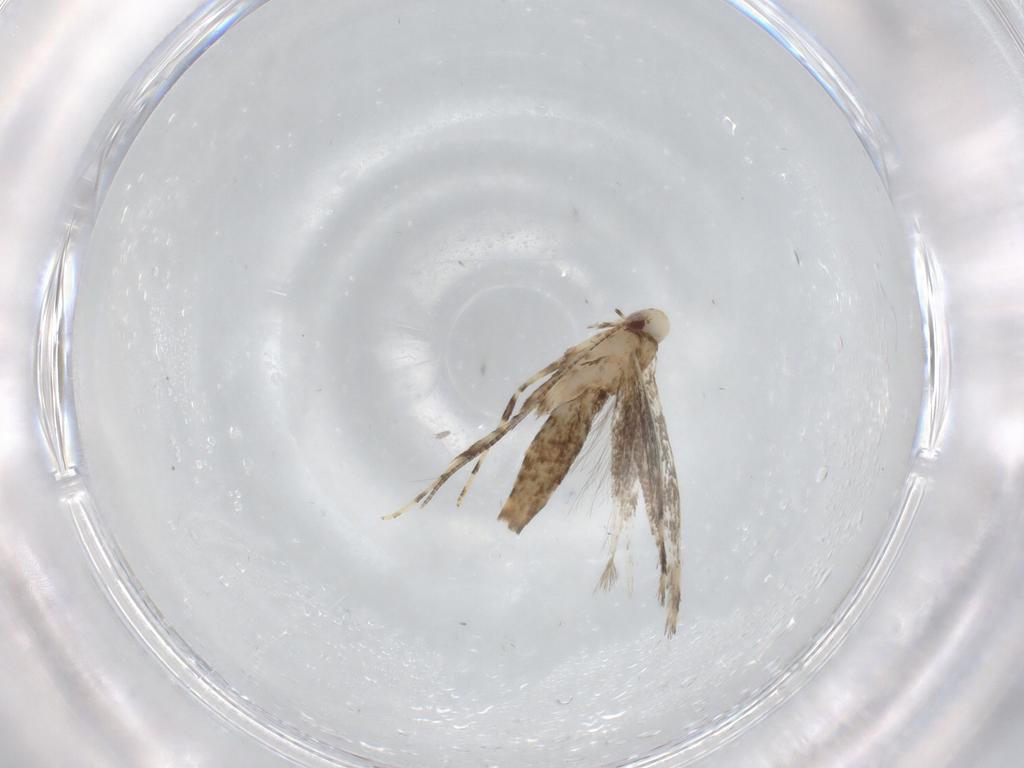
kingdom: Animalia
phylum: Arthropoda
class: Insecta
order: Lepidoptera
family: Gracillariidae
